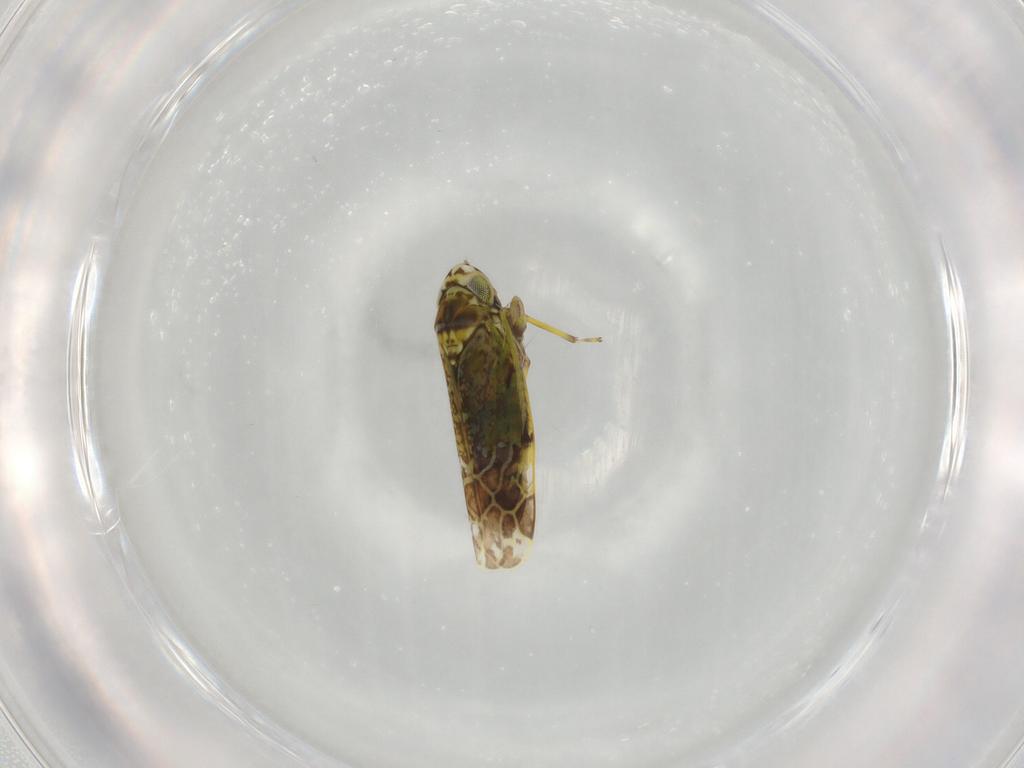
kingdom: Animalia
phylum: Arthropoda
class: Insecta
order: Hemiptera
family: Cicadellidae
